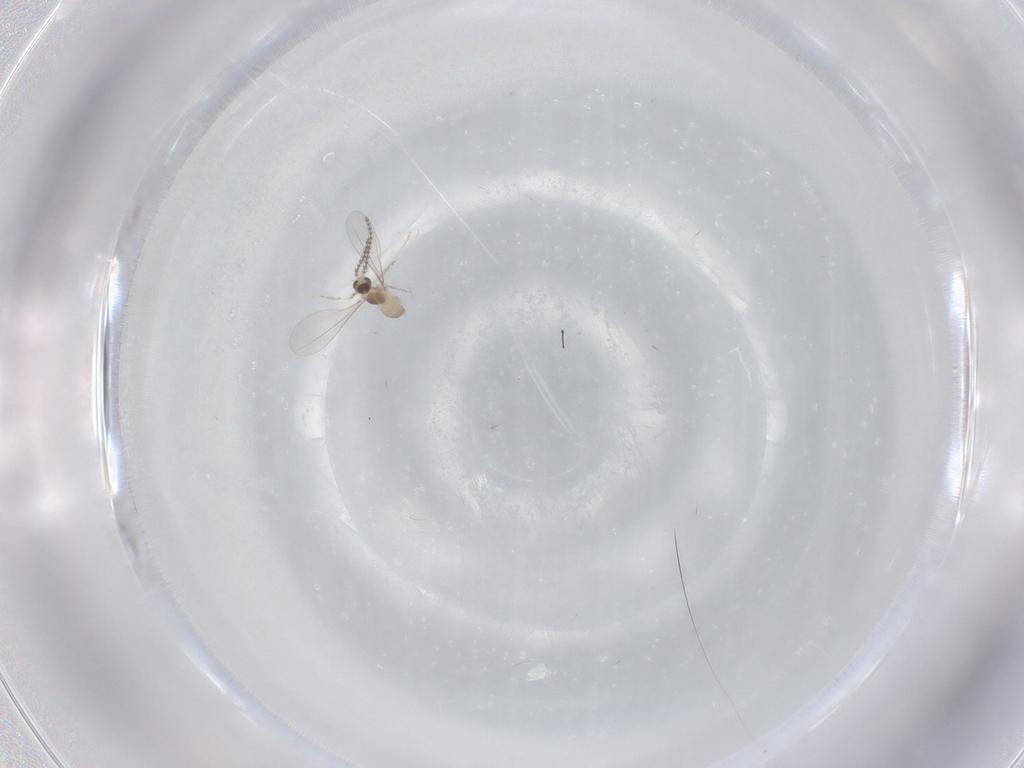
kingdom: Animalia
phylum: Arthropoda
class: Insecta
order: Diptera
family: Cecidomyiidae
